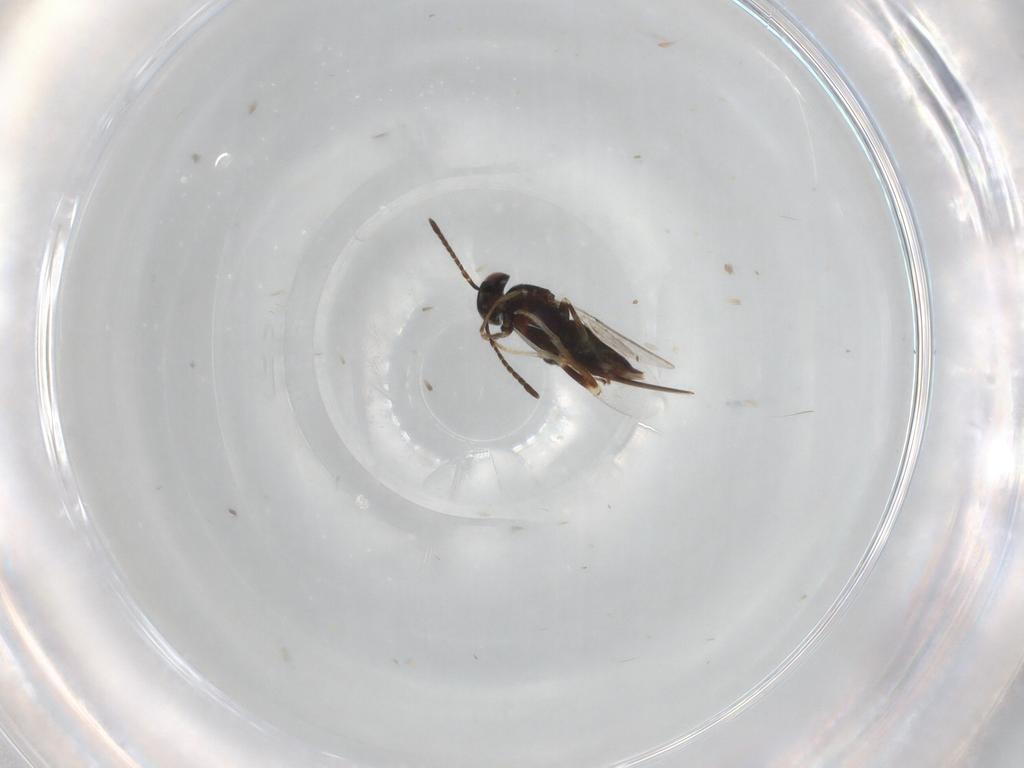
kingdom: Animalia
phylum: Arthropoda
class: Insecta
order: Hymenoptera
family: Encyrtidae
